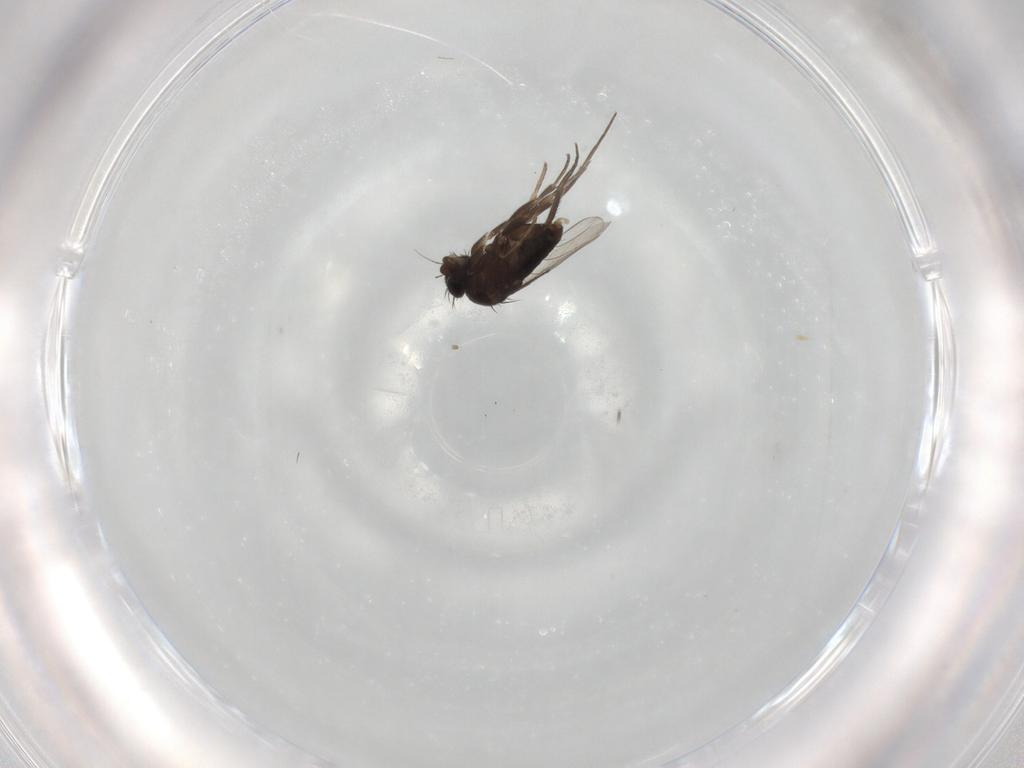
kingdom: Animalia
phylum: Arthropoda
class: Insecta
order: Diptera
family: Phoridae
